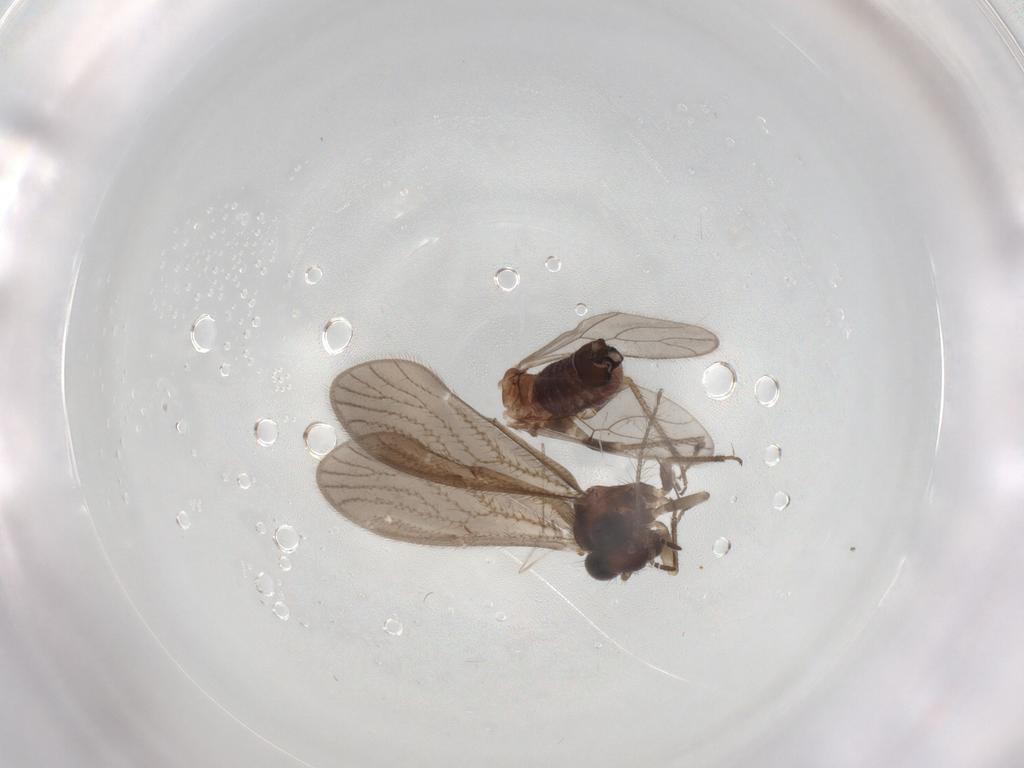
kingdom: Animalia
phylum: Arthropoda
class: Insecta
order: Diptera
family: Chironomidae
